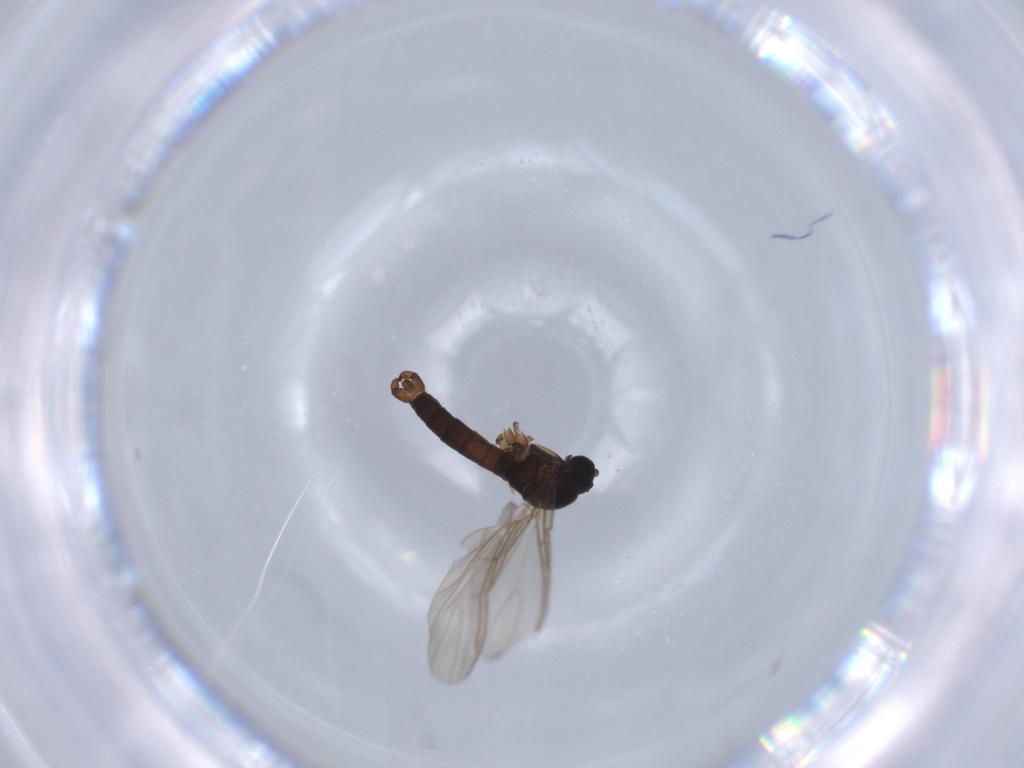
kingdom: Animalia
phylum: Arthropoda
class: Insecta
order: Diptera
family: Sciaridae
